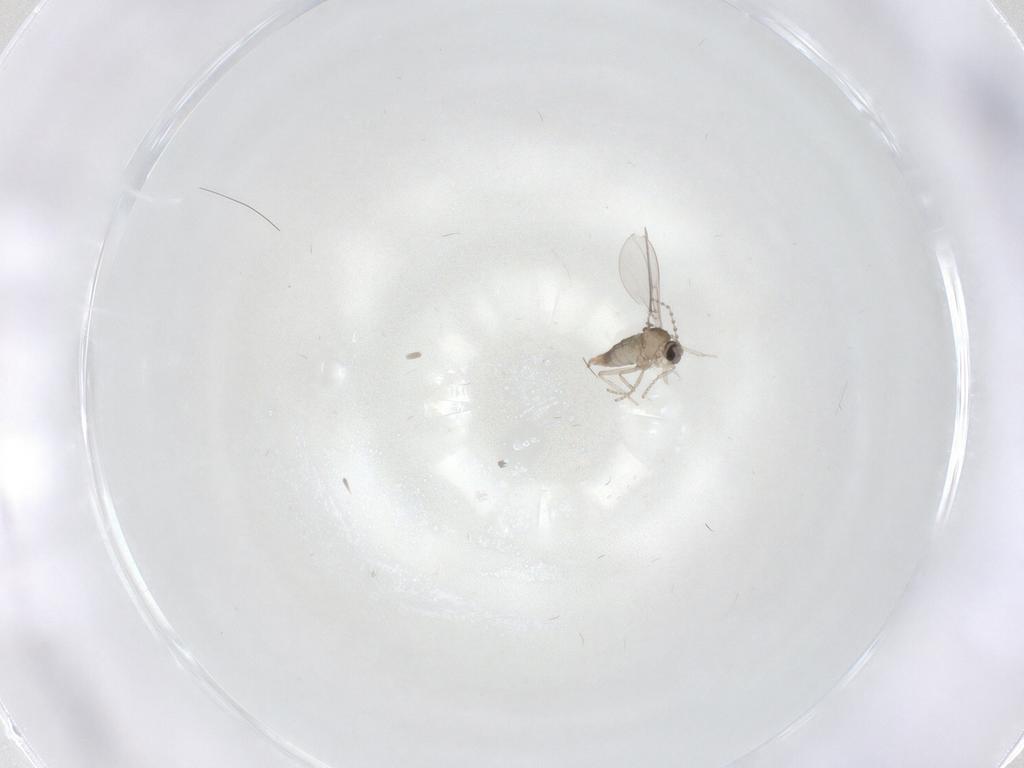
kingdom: Animalia
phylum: Arthropoda
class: Insecta
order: Diptera
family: Cecidomyiidae
